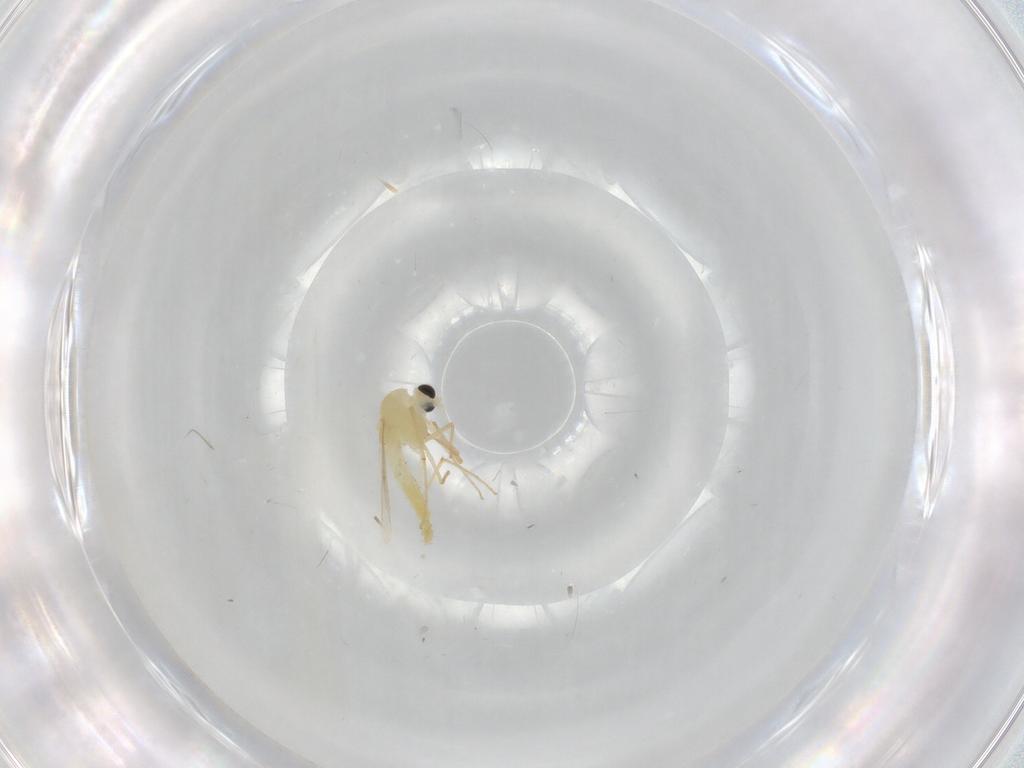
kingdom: Animalia
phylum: Arthropoda
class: Insecta
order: Diptera
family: Chironomidae
